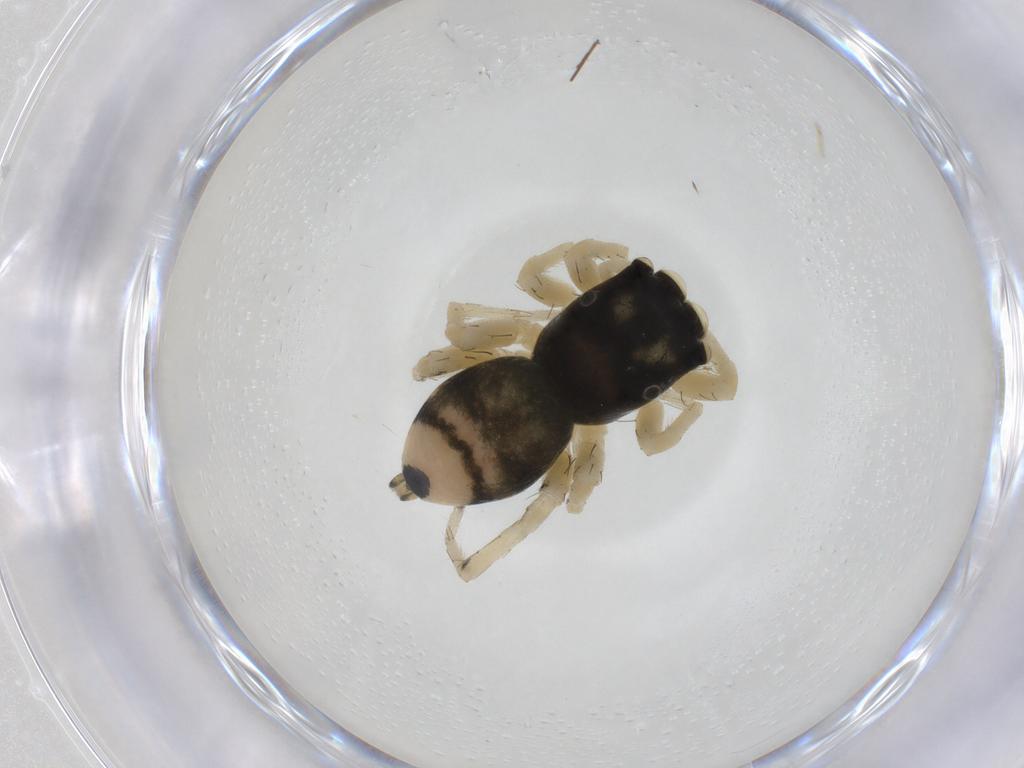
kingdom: Animalia
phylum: Arthropoda
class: Arachnida
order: Araneae
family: Salticidae
